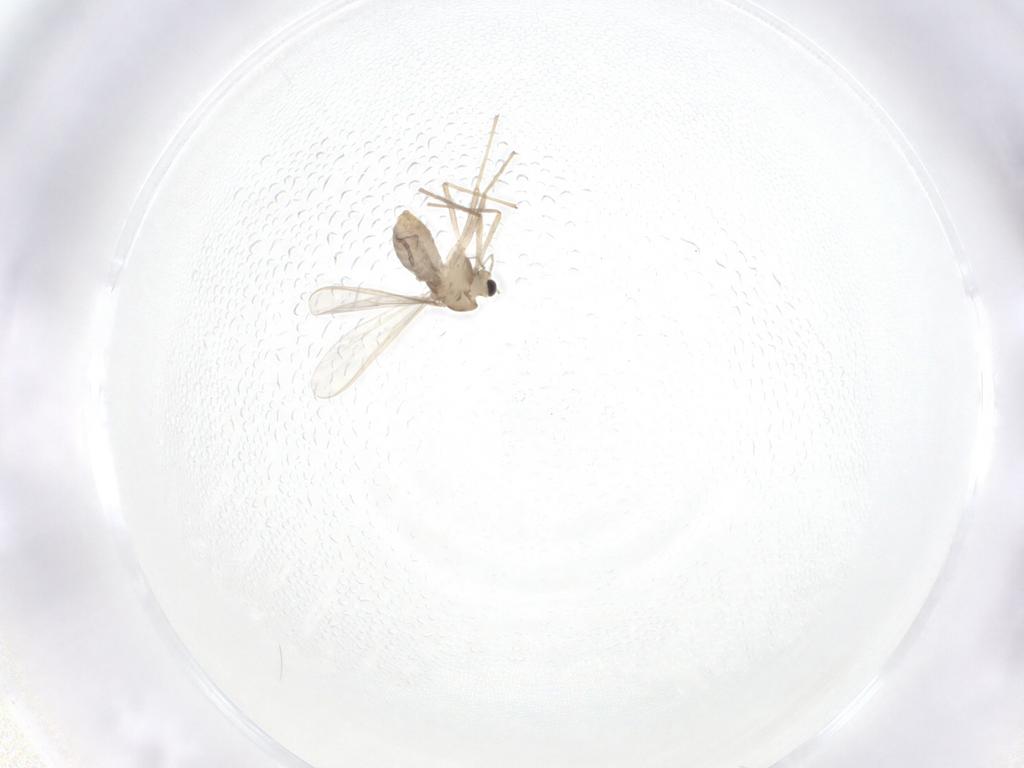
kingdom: Animalia
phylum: Arthropoda
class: Insecta
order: Diptera
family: Chironomidae
